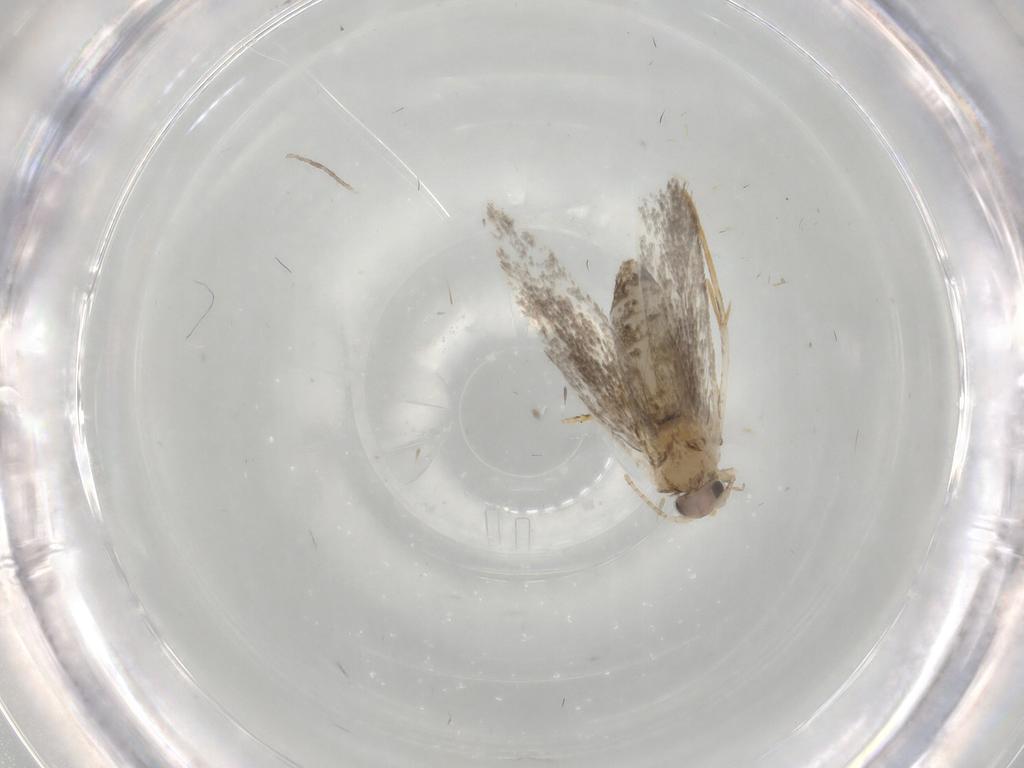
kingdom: Animalia
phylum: Arthropoda
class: Insecta
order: Lepidoptera
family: Tineidae
